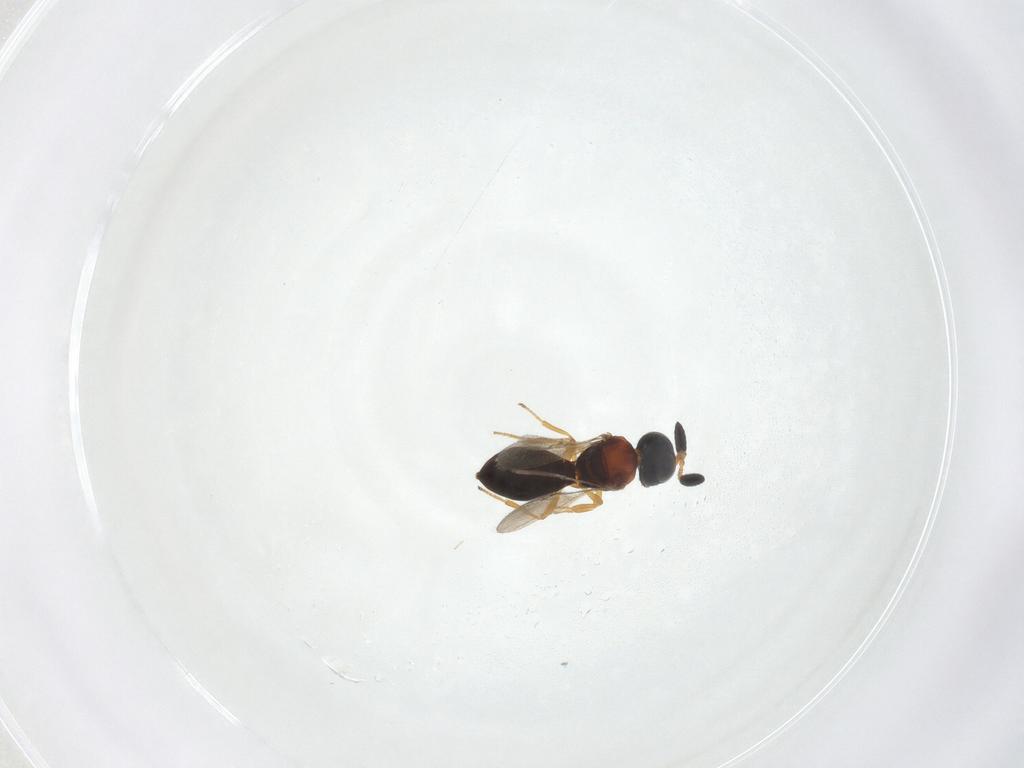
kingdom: Animalia
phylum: Arthropoda
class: Insecta
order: Hymenoptera
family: Scelionidae
